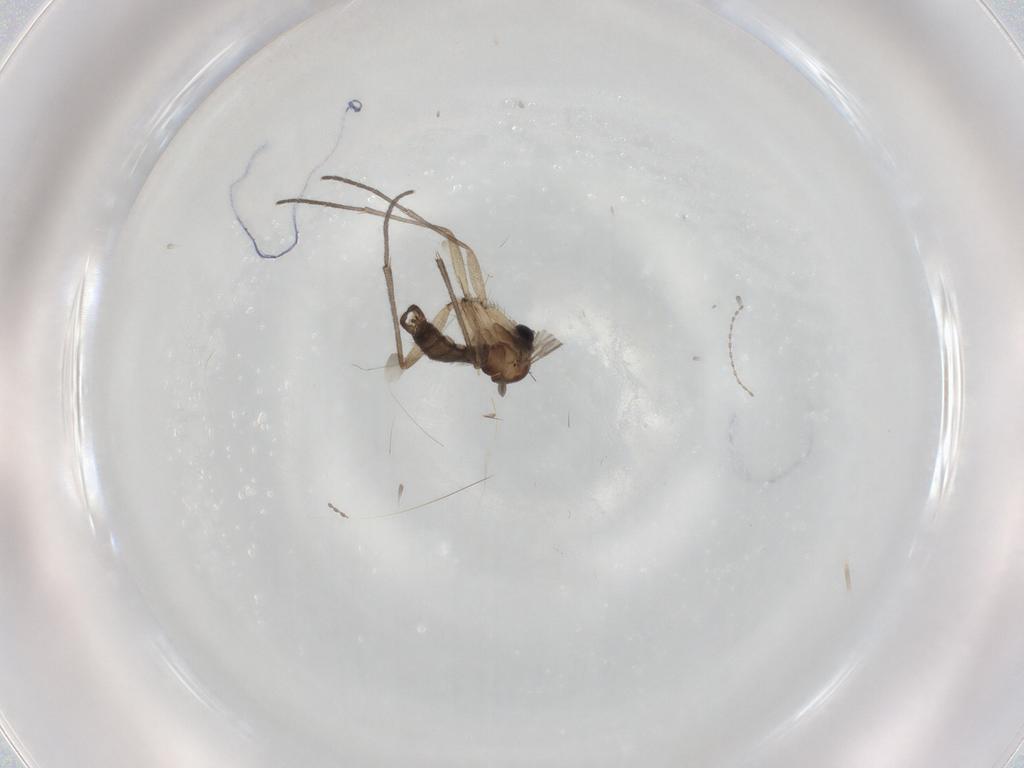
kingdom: Animalia
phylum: Arthropoda
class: Insecta
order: Diptera
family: Sciaridae
